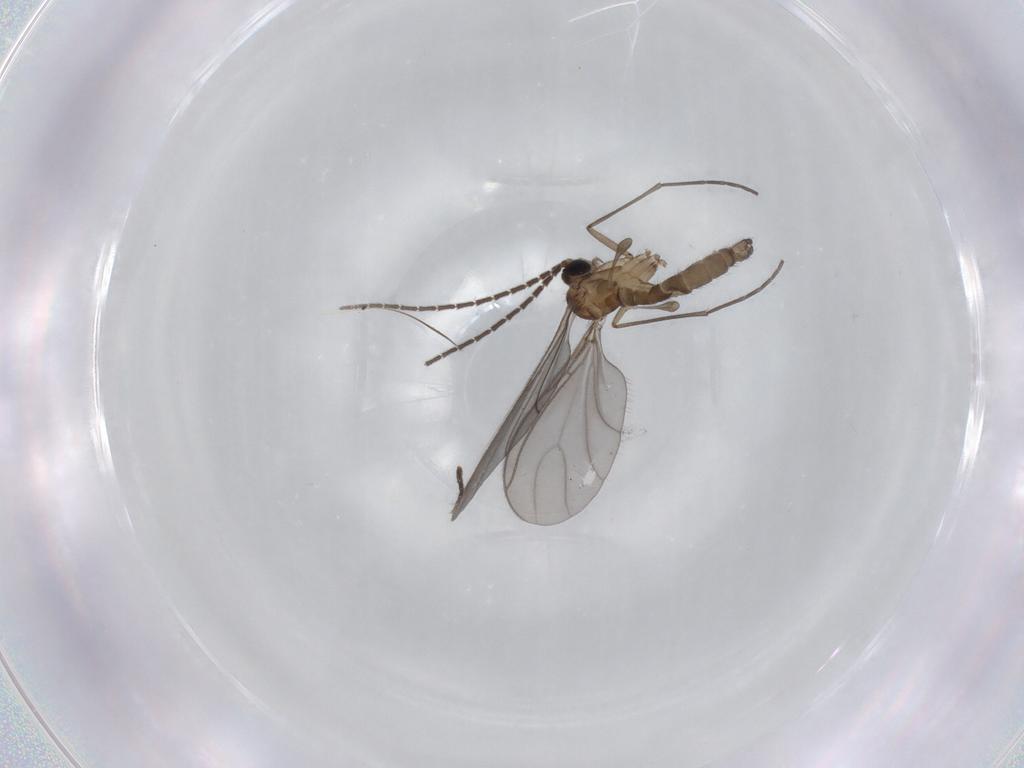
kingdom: Animalia
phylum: Arthropoda
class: Insecta
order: Diptera
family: Sciaridae
